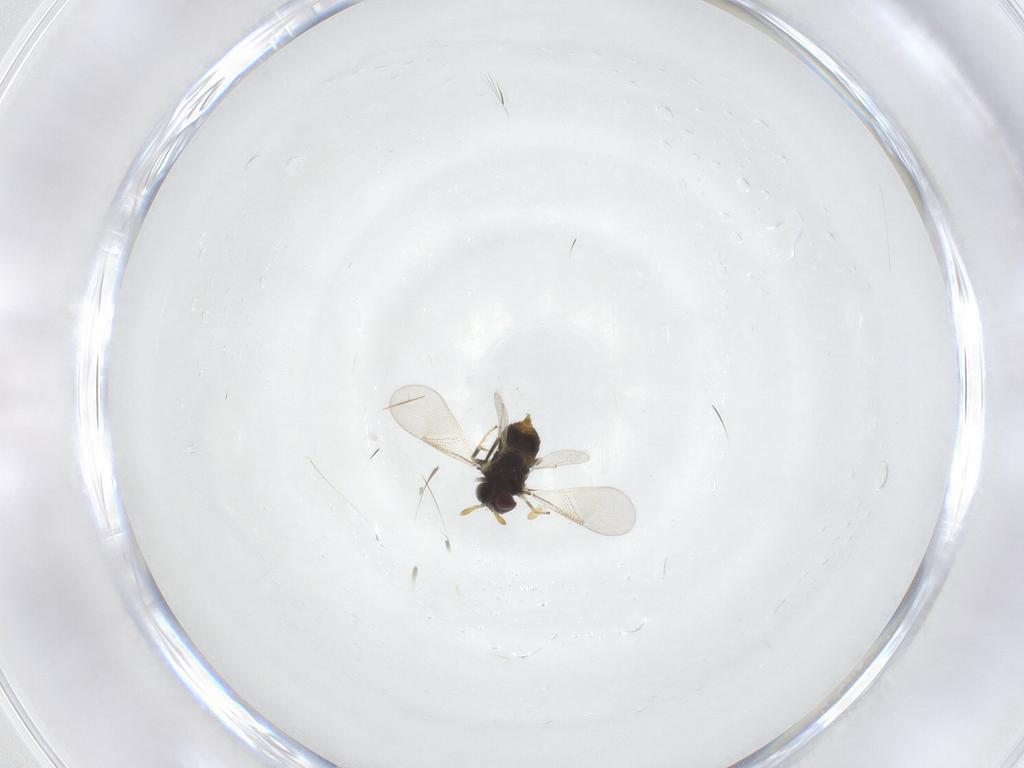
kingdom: Animalia
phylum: Arthropoda
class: Insecta
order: Hymenoptera
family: Aphelinidae
